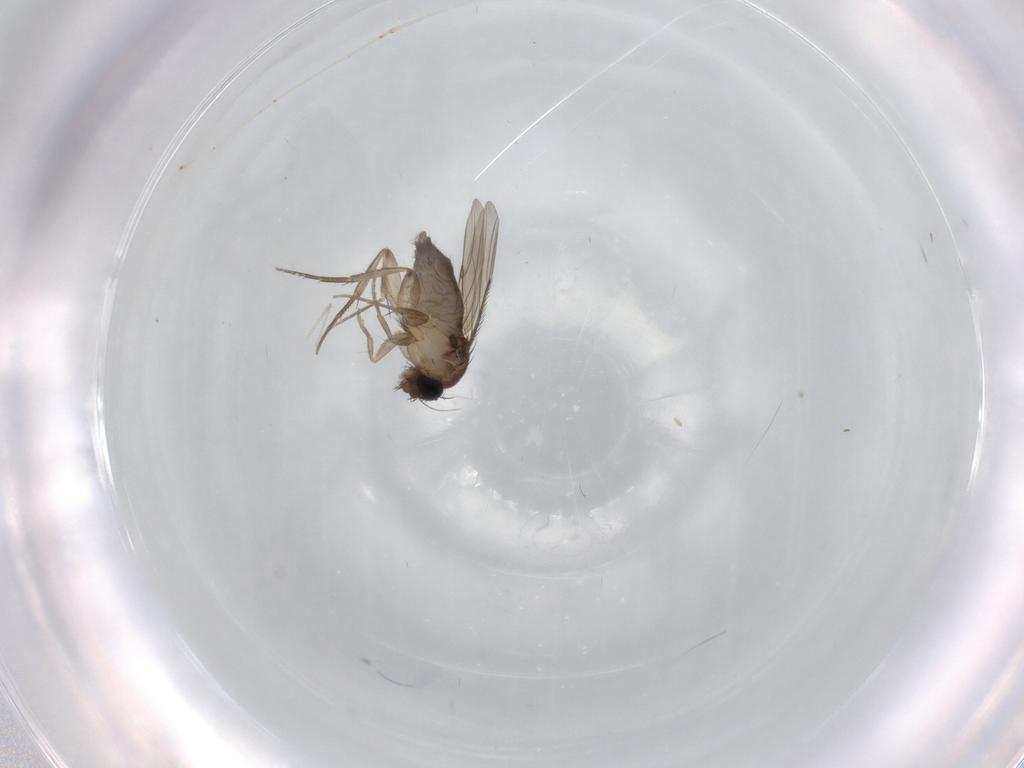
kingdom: Animalia
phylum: Arthropoda
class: Insecta
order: Diptera
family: Phoridae
